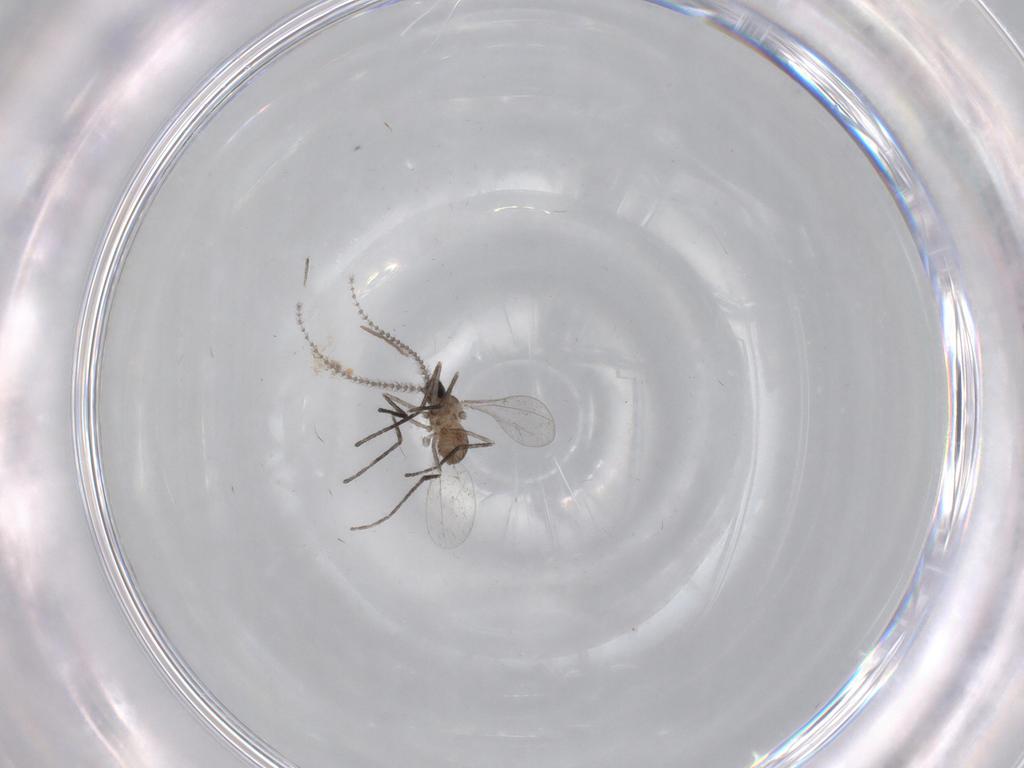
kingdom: Animalia
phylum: Arthropoda
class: Insecta
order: Diptera
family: Cecidomyiidae
